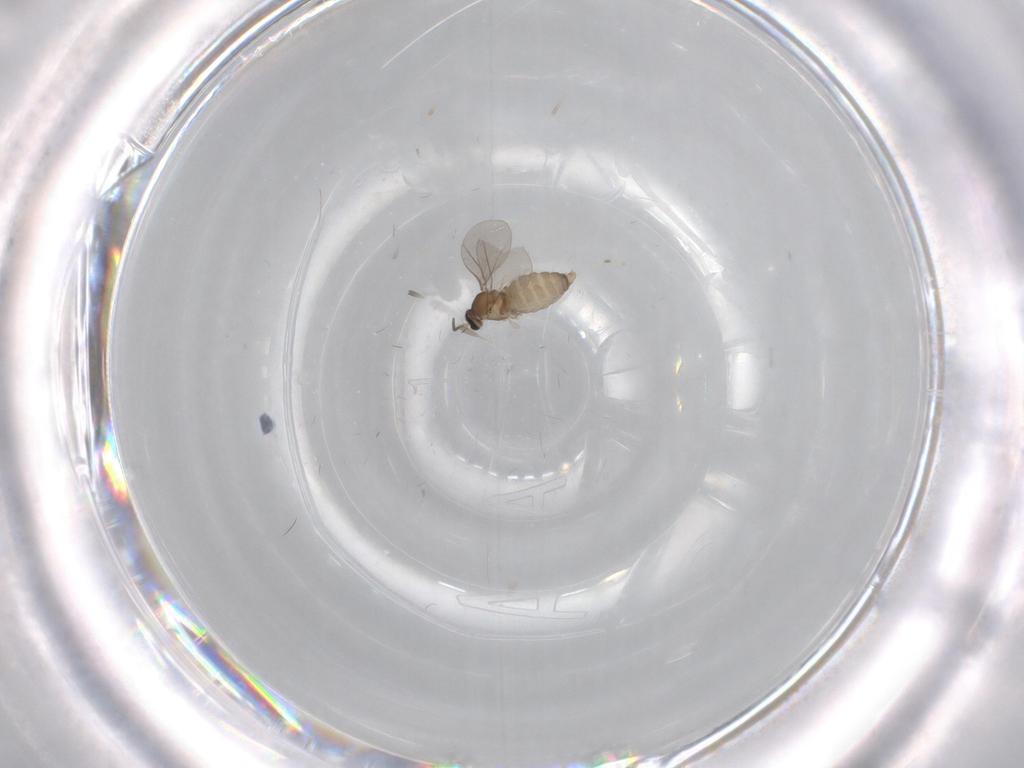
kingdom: Animalia
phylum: Arthropoda
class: Insecta
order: Diptera
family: Cecidomyiidae
